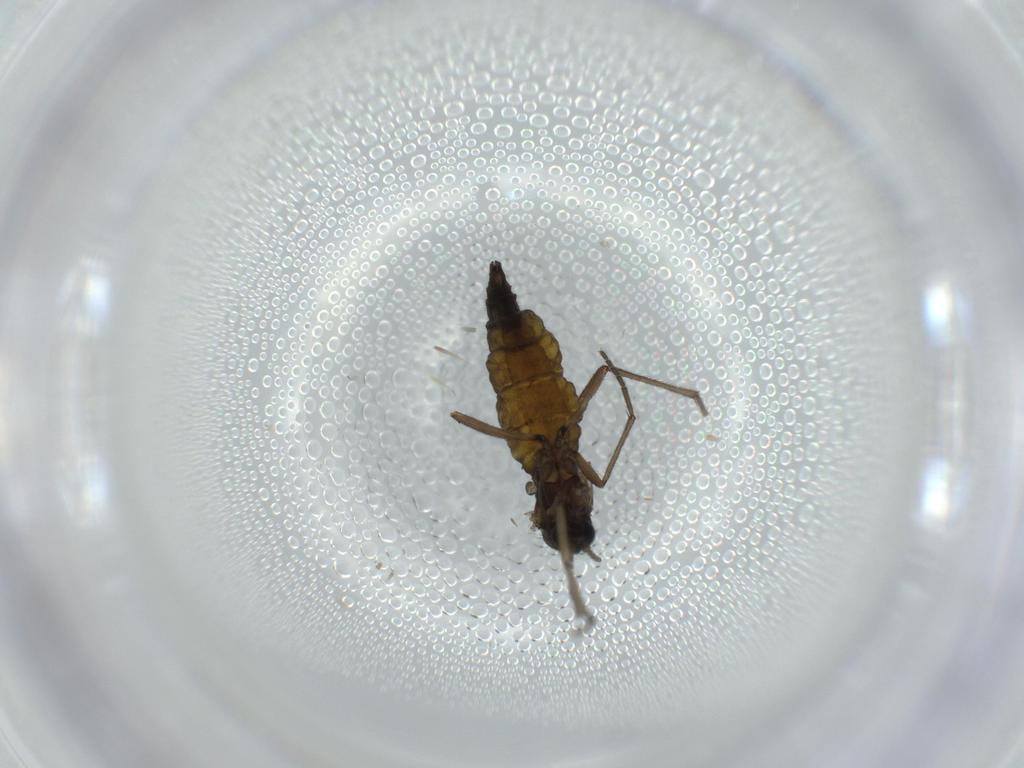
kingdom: Animalia
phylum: Arthropoda
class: Insecta
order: Diptera
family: Sciaridae
